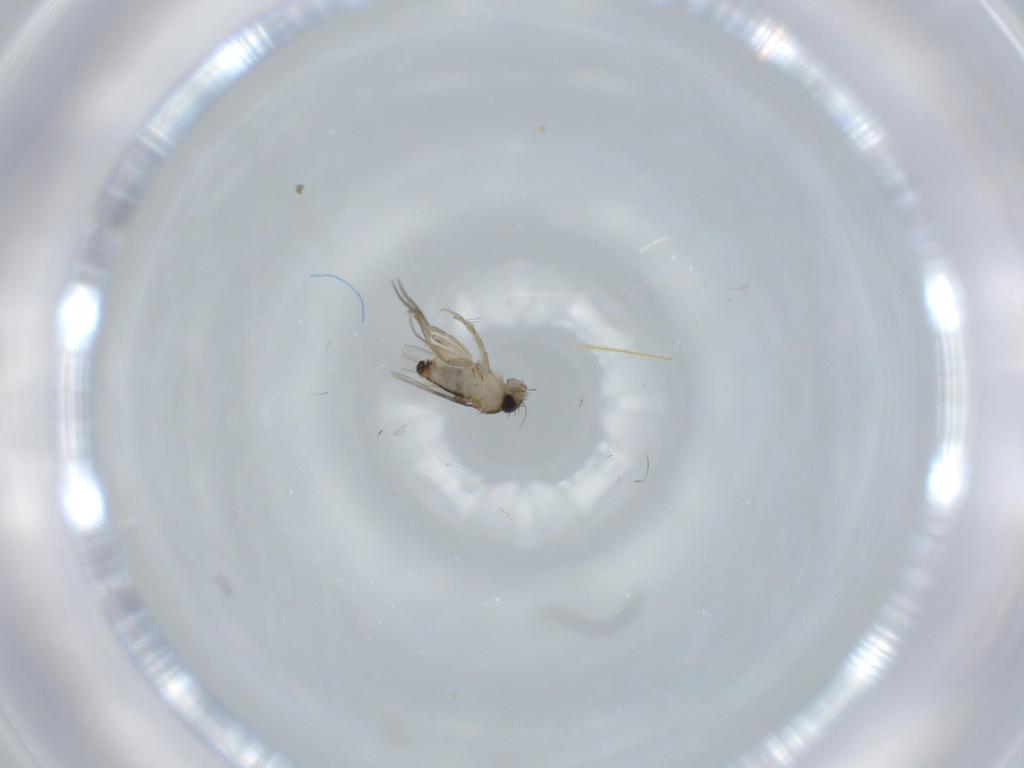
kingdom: Animalia
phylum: Arthropoda
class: Insecta
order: Diptera
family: Phoridae
